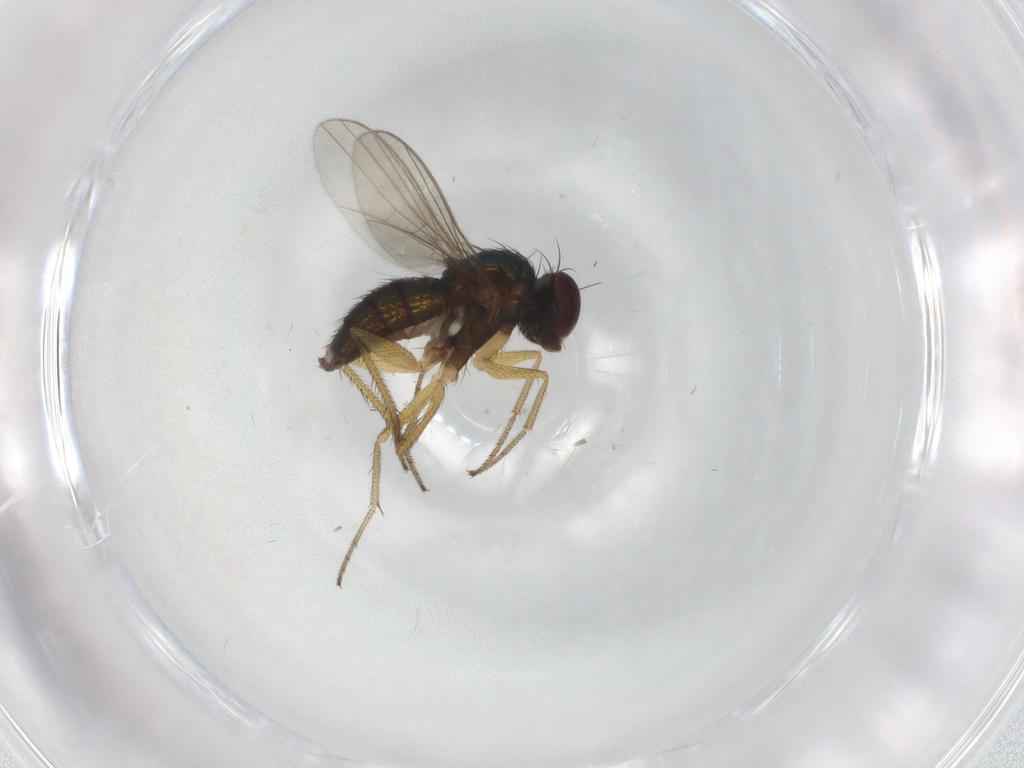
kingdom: Animalia
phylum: Arthropoda
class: Insecta
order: Diptera
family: Dolichopodidae
